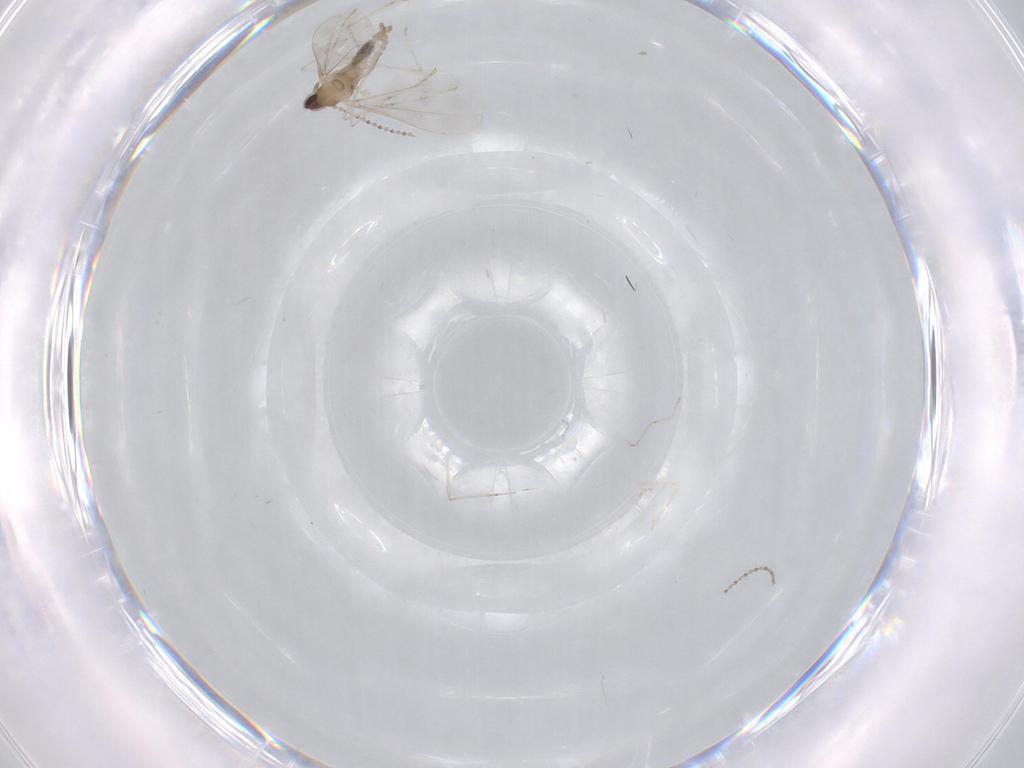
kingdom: Animalia
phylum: Arthropoda
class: Insecta
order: Diptera
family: Cecidomyiidae
